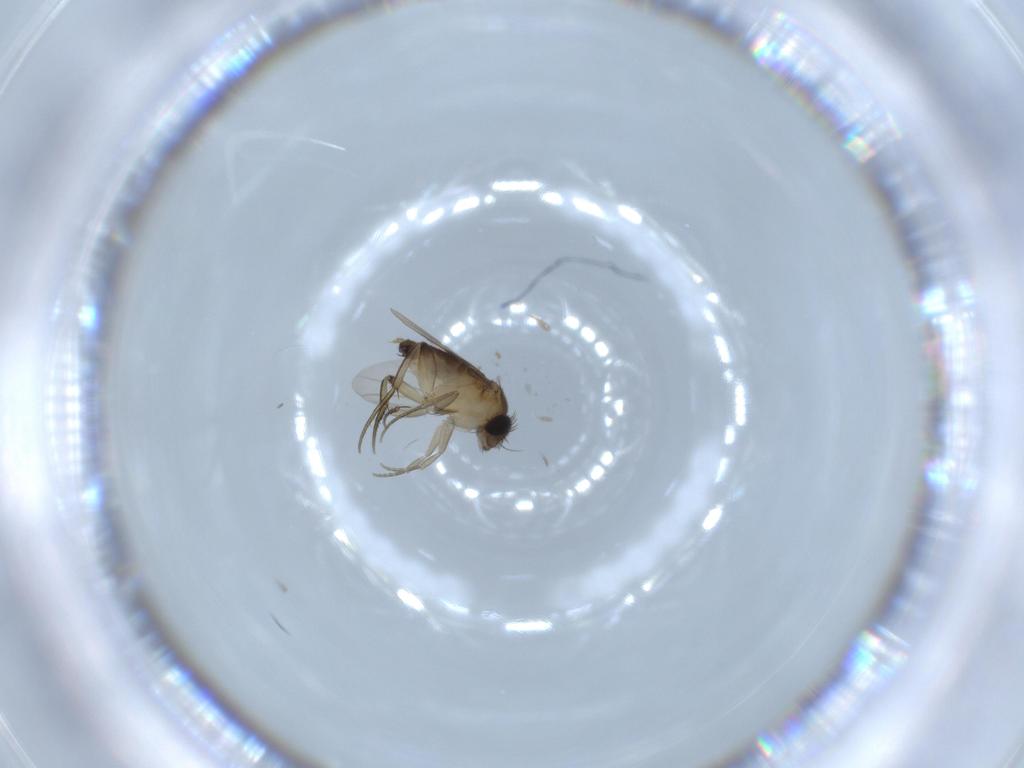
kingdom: Animalia
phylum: Arthropoda
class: Insecta
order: Diptera
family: Phoridae
